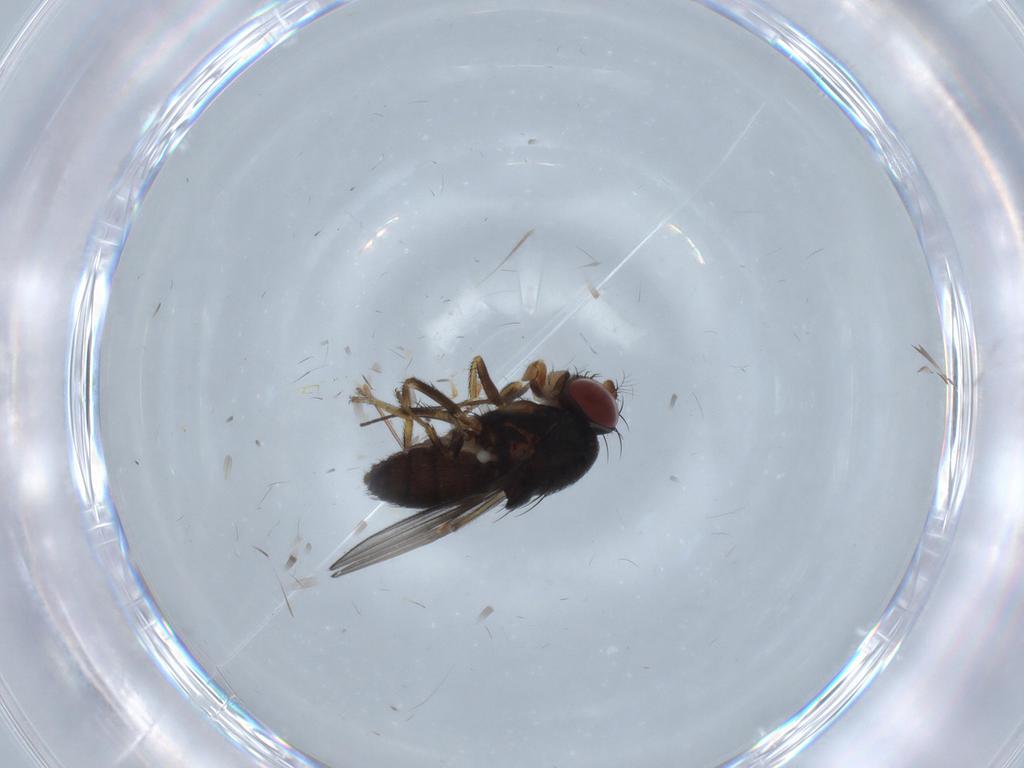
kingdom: Animalia
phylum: Arthropoda
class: Insecta
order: Diptera
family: Ephydridae
